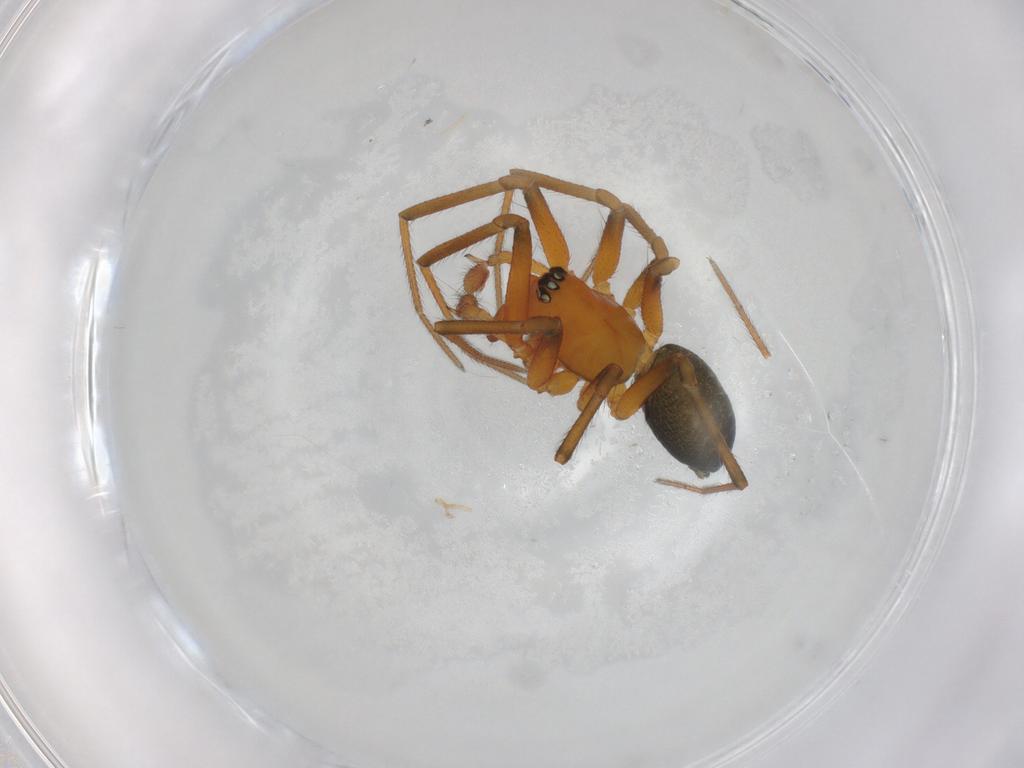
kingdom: Animalia
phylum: Arthropoda
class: Arachnida
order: Araneae
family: Linyphiidae
